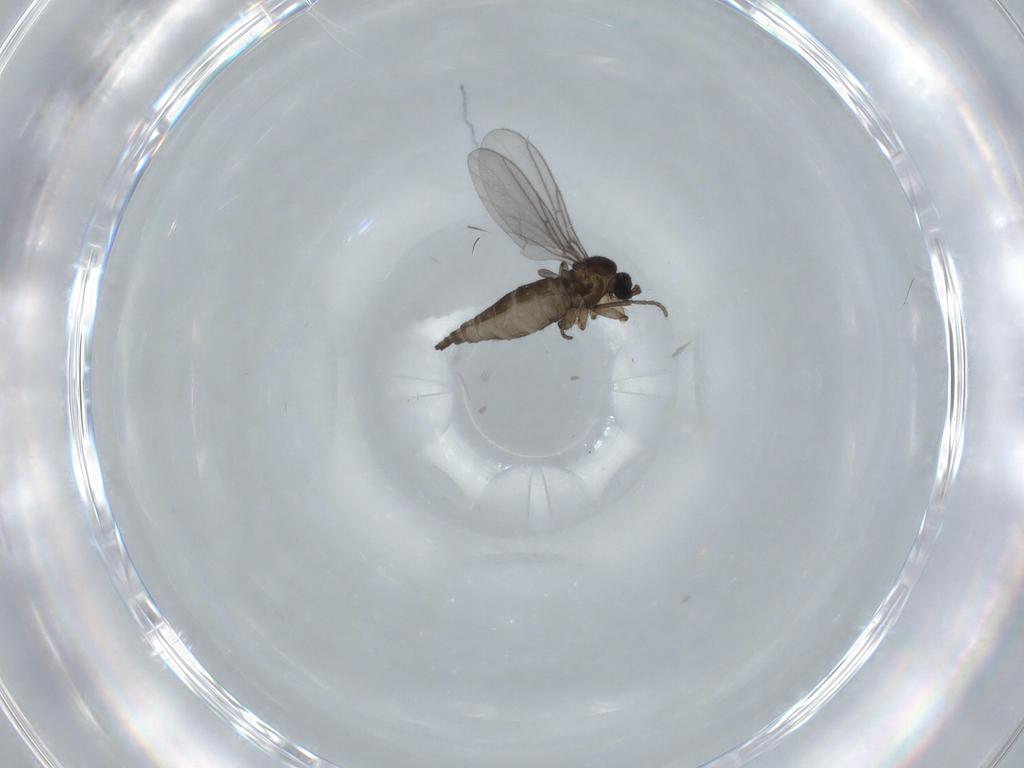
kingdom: Animalia
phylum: Arthropoda
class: Insecta
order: Diptera
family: Sciaridae
